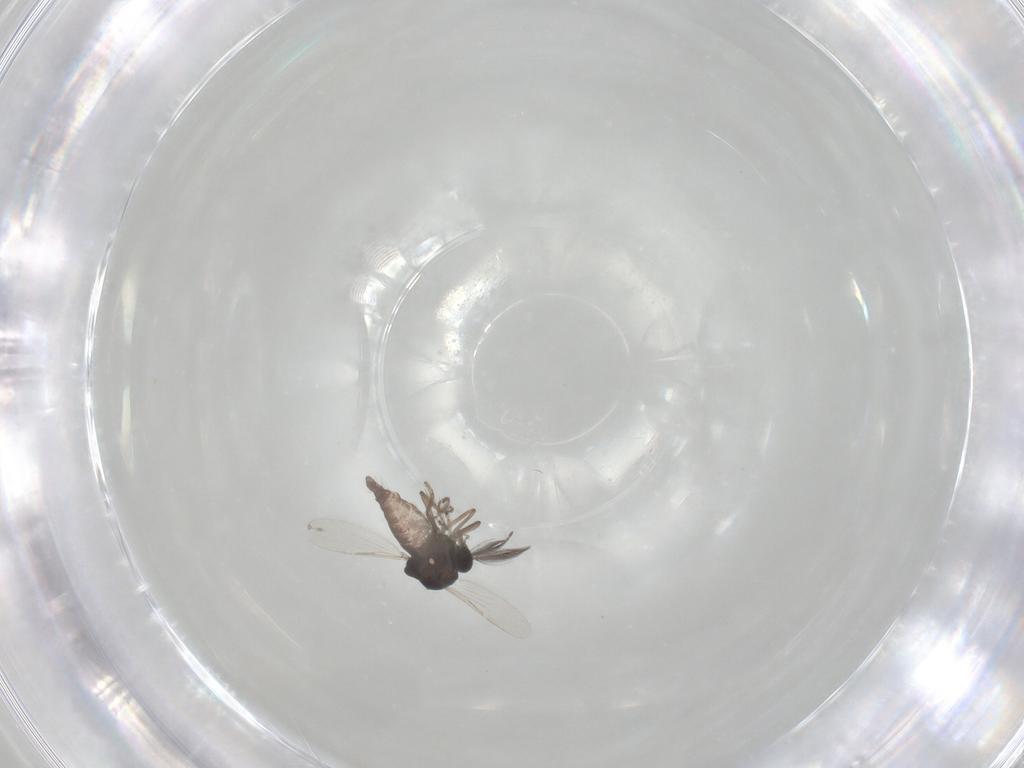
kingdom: Animalia
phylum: Arthropoda
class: Insecta
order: Diptera
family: Ceratopogonidae
